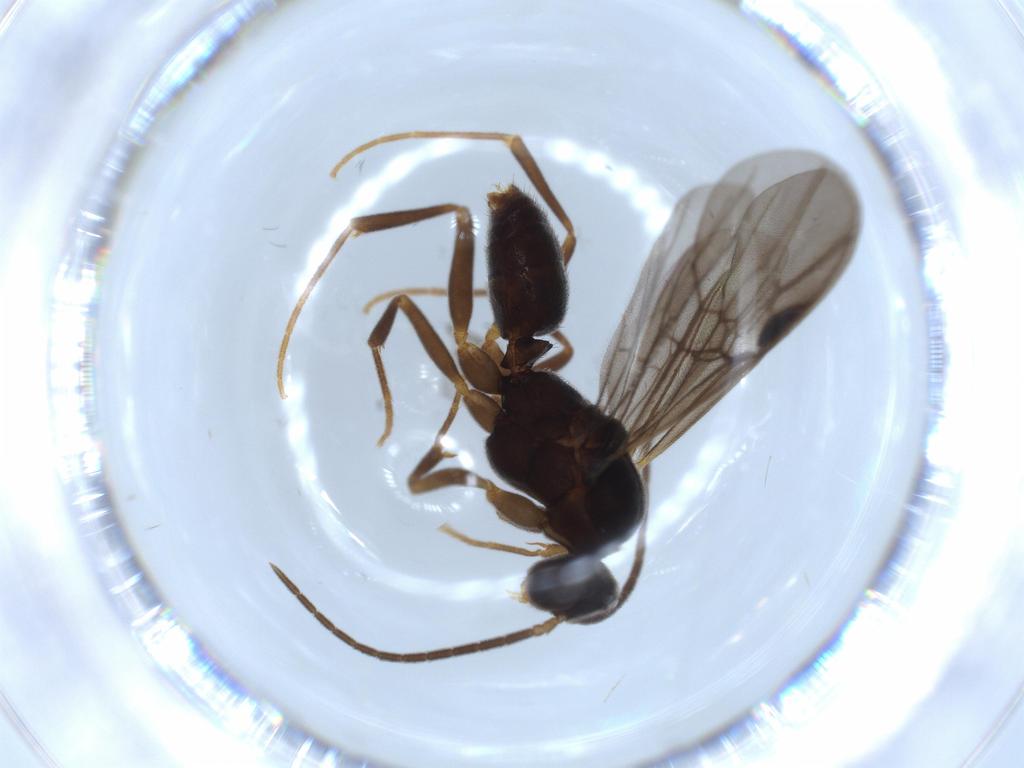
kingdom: Animalia
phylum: Arthropoda
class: Insecta
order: Hymenoptera
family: Formicidae
